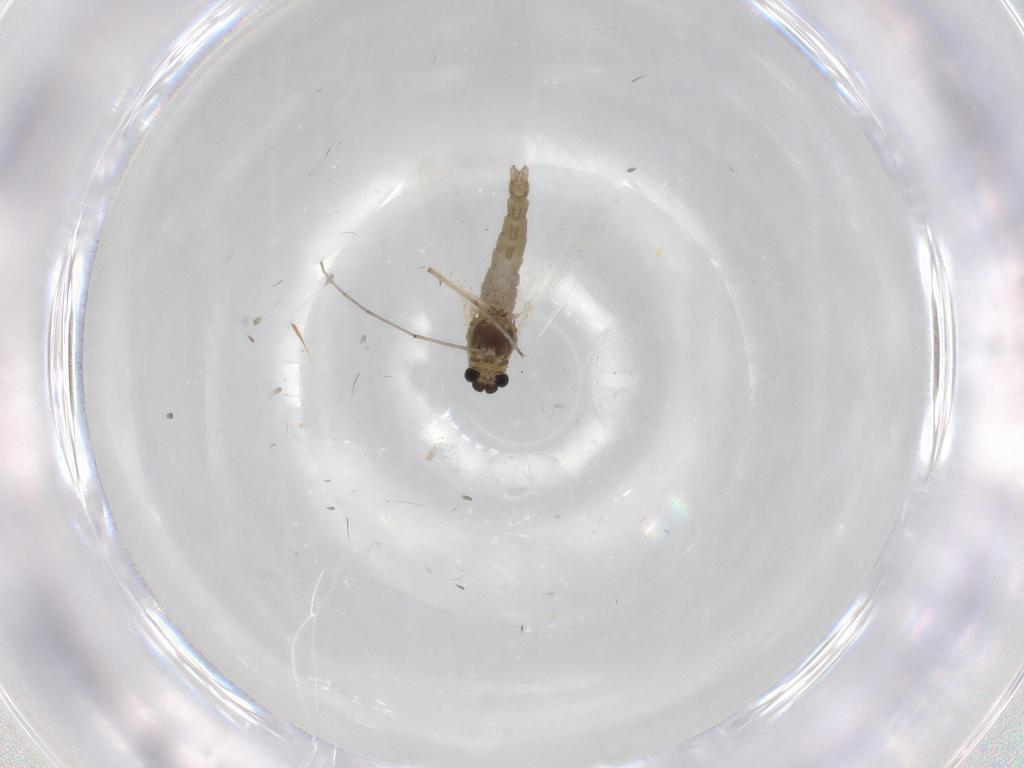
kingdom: Animalia
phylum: Arthropoda
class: Insecta
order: Diptera
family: Chironomidae
